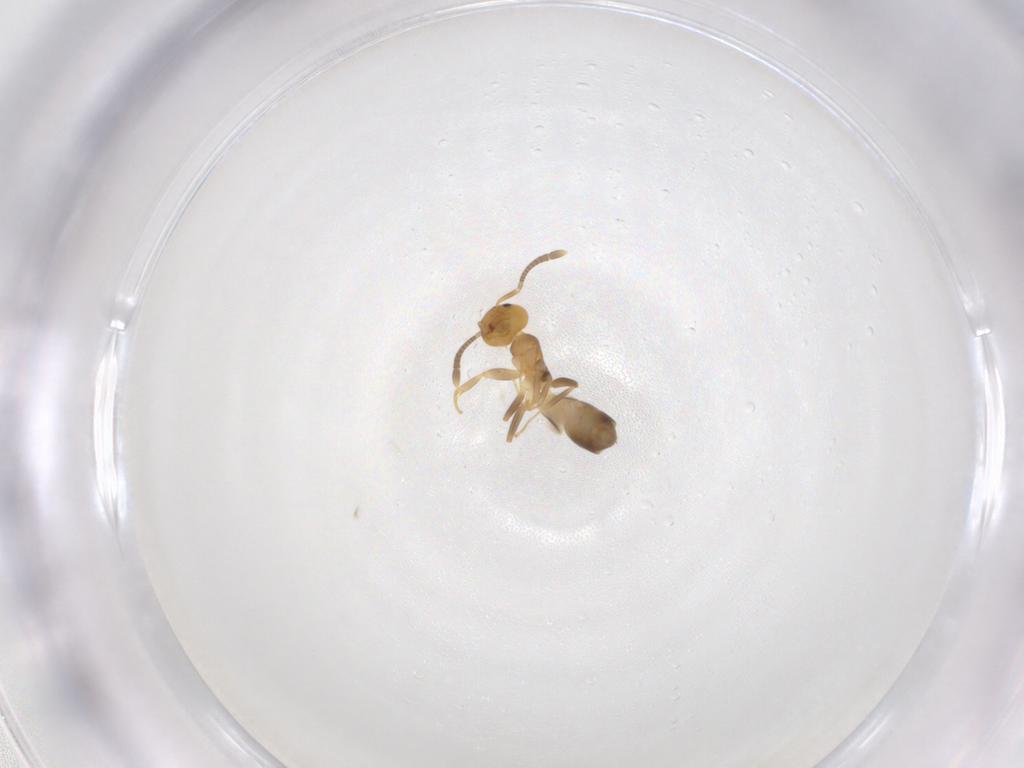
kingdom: Animalia
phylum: Arthropoda
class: Insecta
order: Hymenoptera
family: Formicidae
